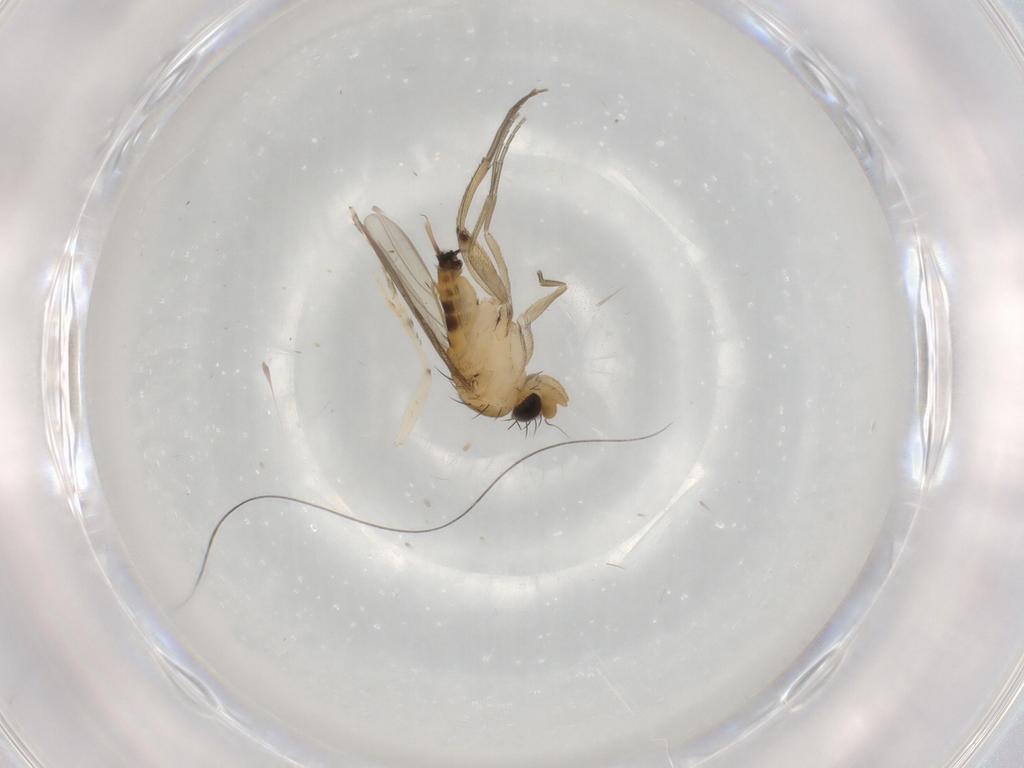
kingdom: Animalia
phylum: Arthropoda
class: Insecta
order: Diptera
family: Phoridae
